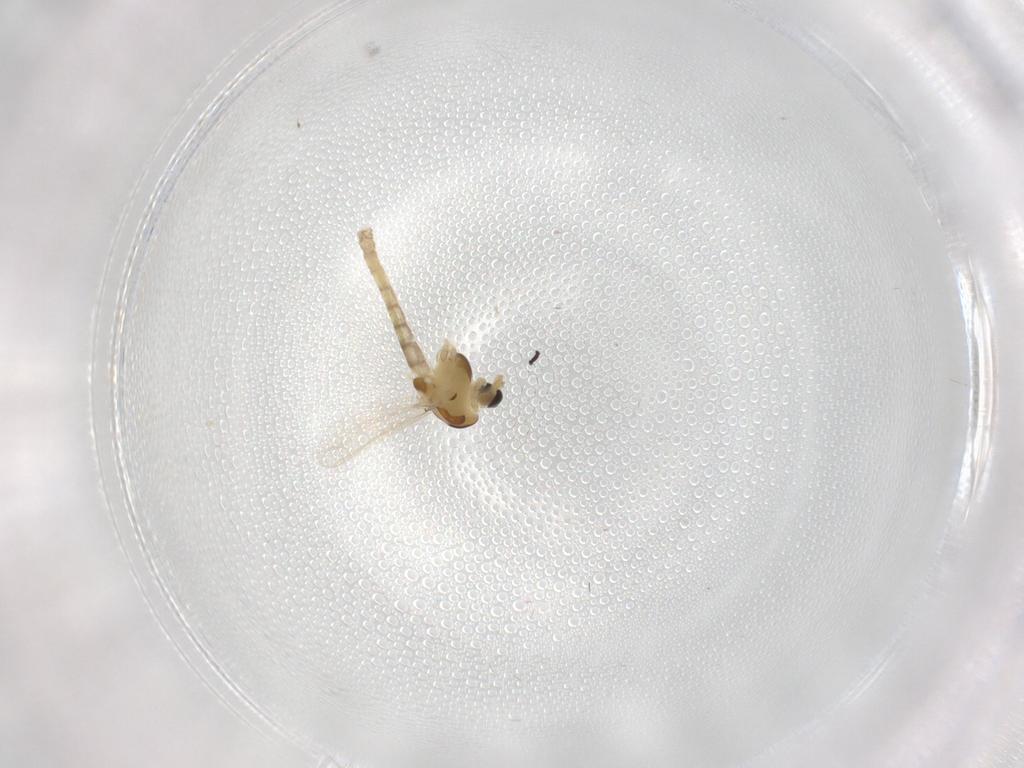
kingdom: Animalia
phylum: Arthropoda
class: Insecta
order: Diptera
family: Chironomidae
